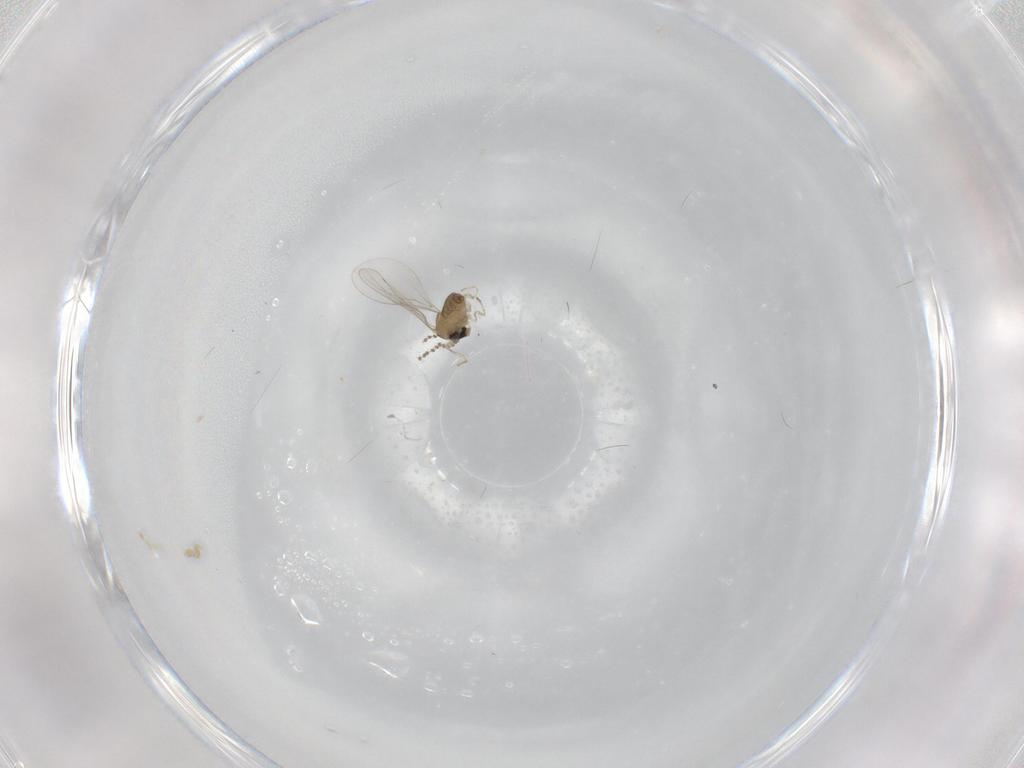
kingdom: Animalia
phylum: Arthropoda
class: Insecta
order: Diptera
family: Cecidomyiidae
